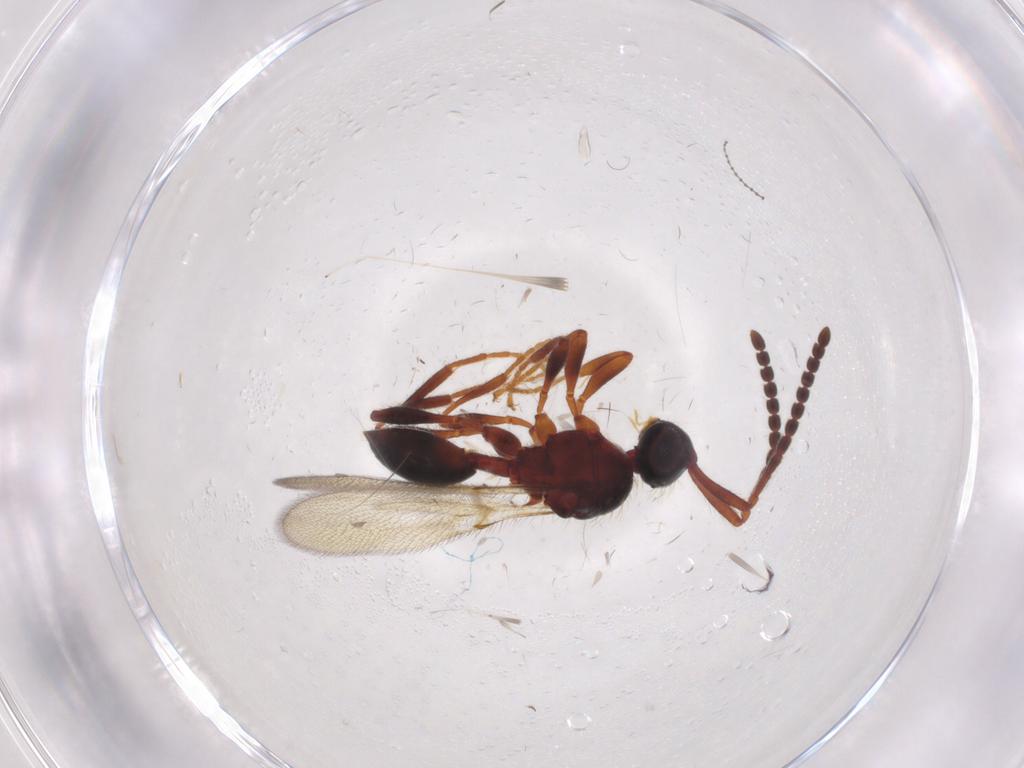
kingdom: Animalia
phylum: Arthropoda
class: Insecta
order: Hymenoptera
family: Diapriidae
